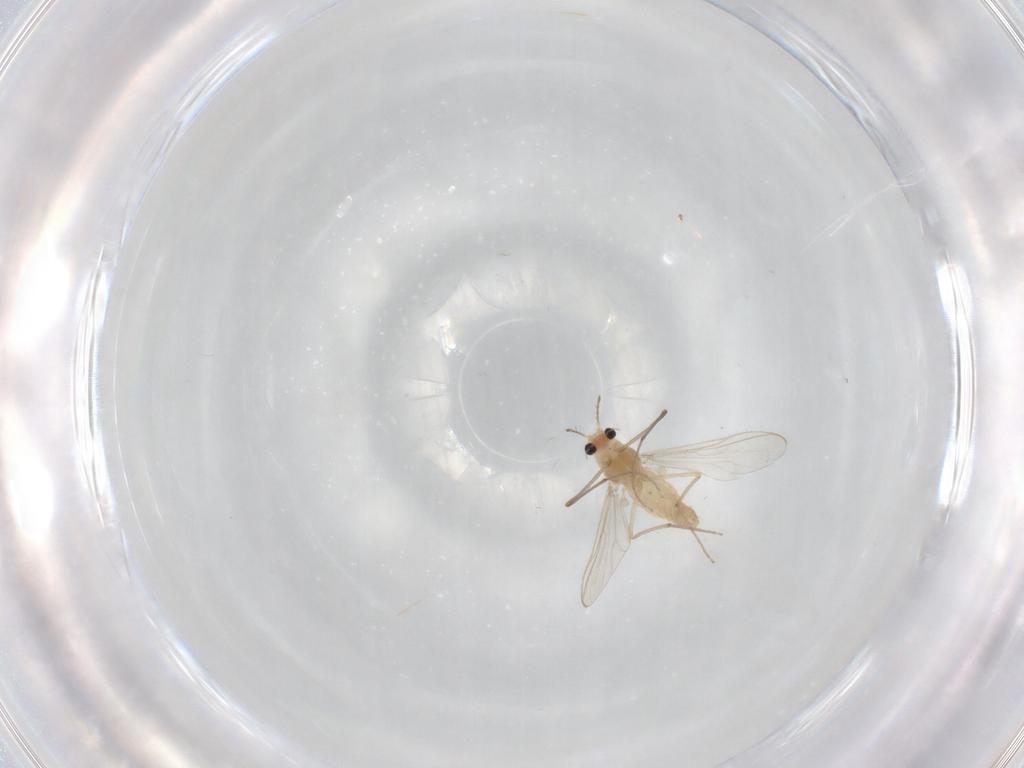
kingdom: Animalia
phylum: Arthropoda
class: Insecta
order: Diptera
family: Chironomidae
